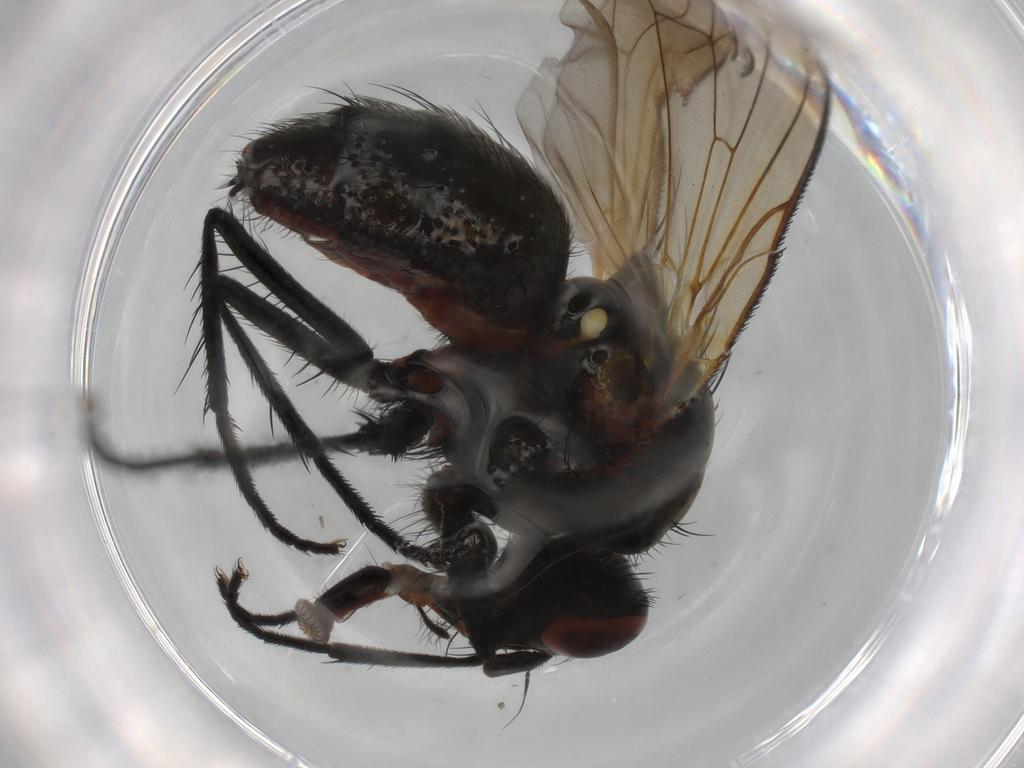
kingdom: Animalia
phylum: Arthropoda
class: Insecta
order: Diptera
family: Anthomyiidae
